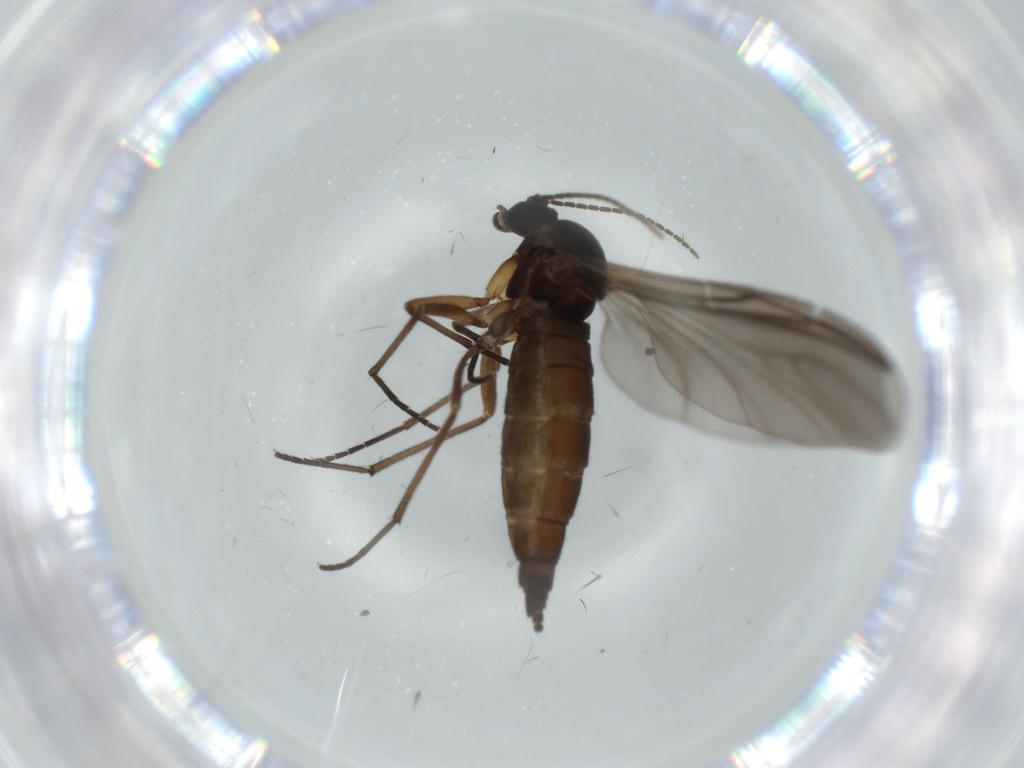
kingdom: Animalia
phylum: Arthropoda
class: Insecta
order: Diptera
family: Sciaridae
